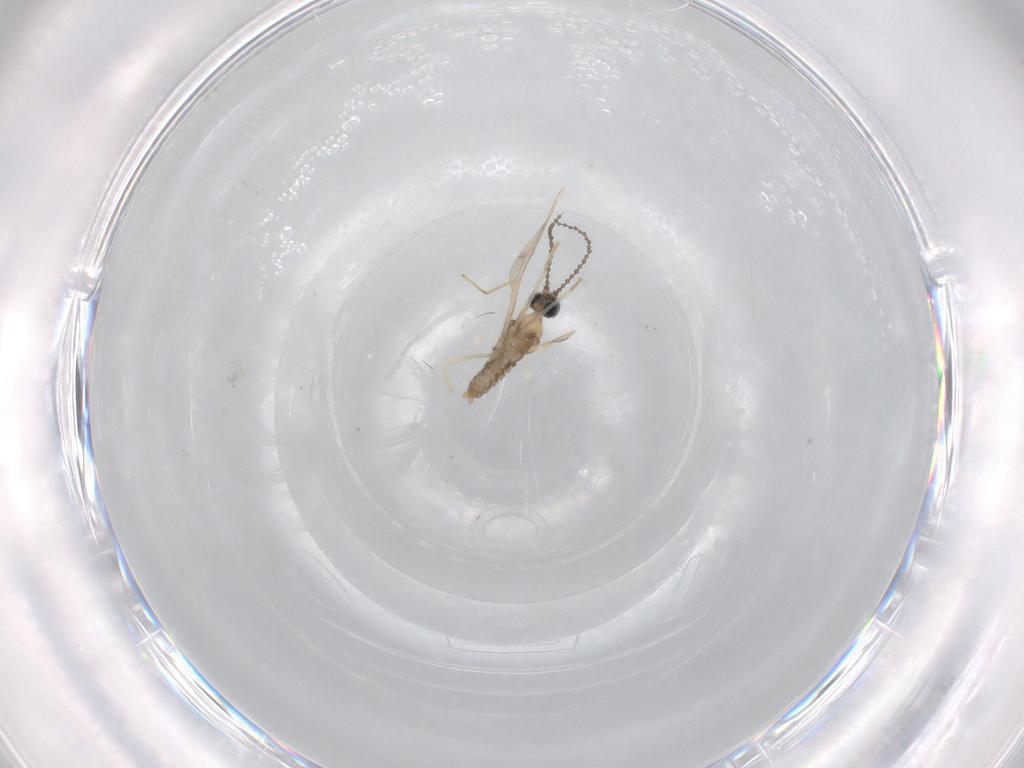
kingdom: Animalia
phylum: Arthropoda
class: Insecta
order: Diptera
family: Cecidomyiidae
